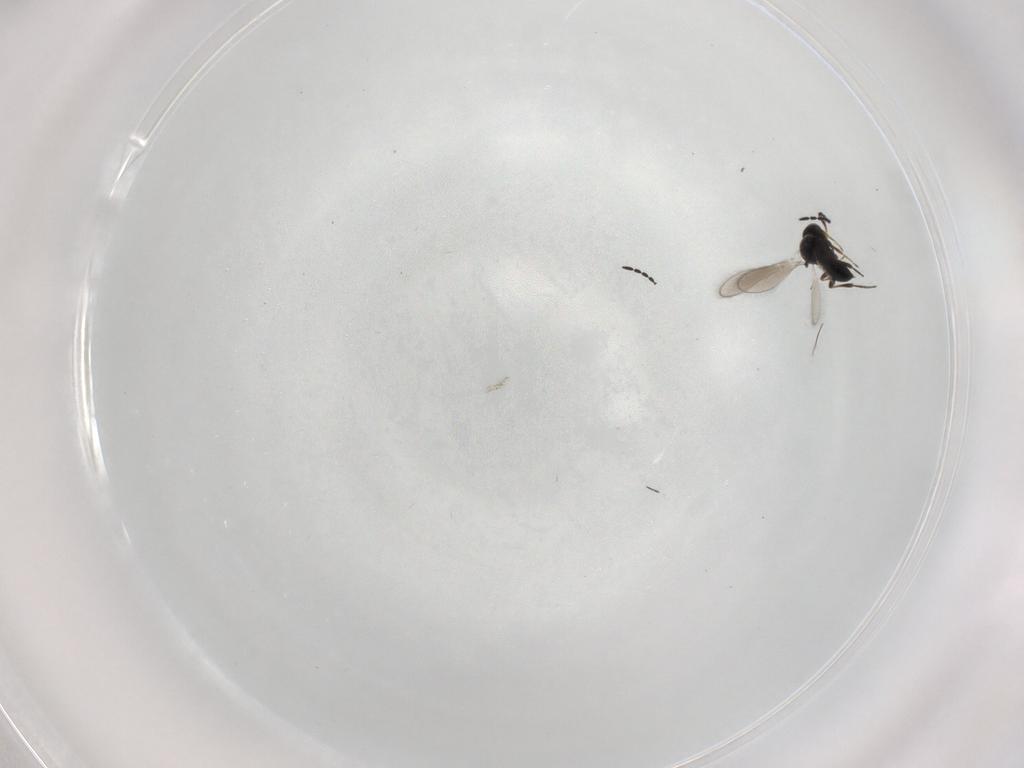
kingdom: Animalia
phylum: Arthropoda
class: Insecta
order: Hymenoptera
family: Platygastridae
